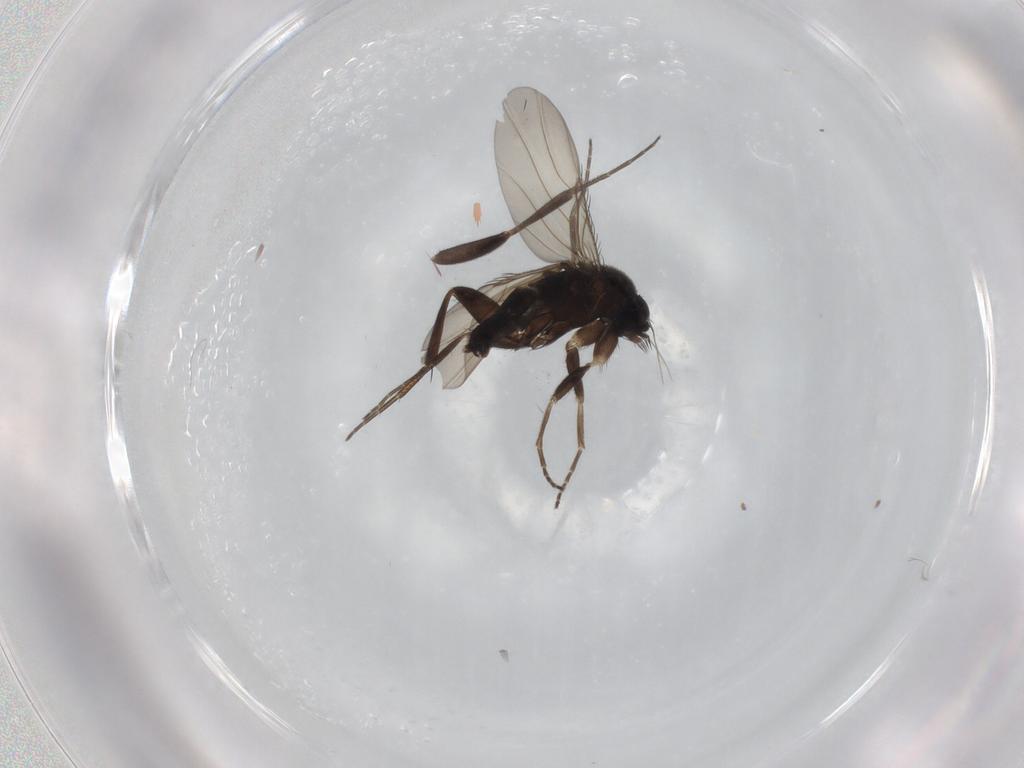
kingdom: Animalia
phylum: Arthropoda
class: Insecta
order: Diptera
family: Phoridae
